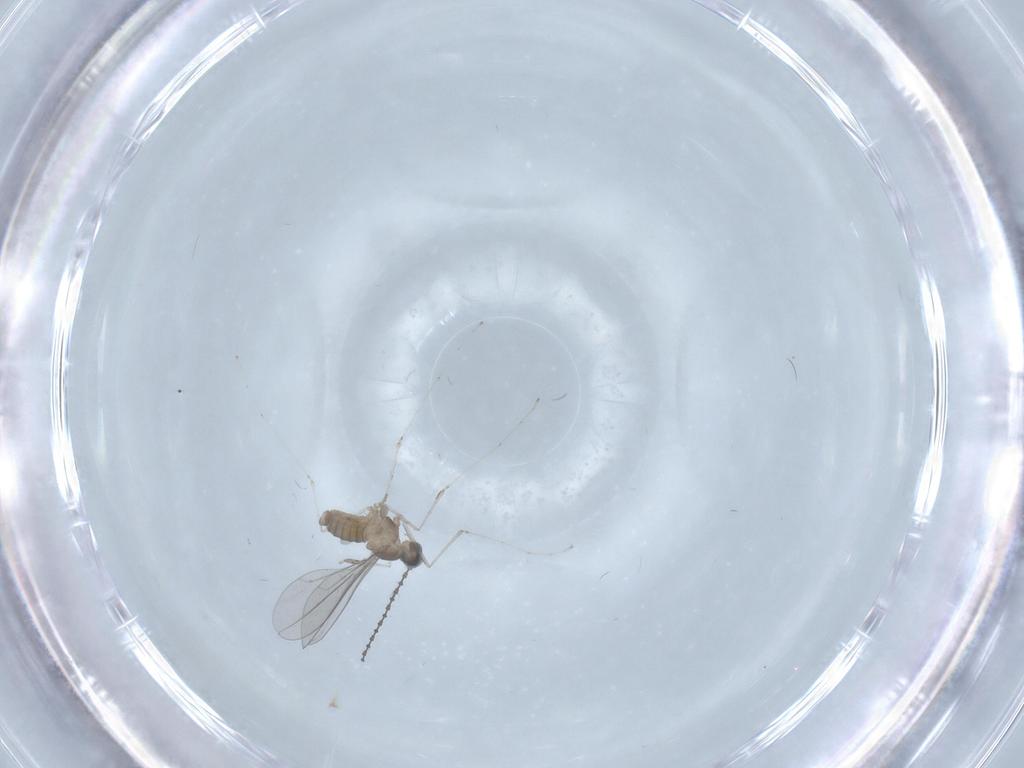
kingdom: Animalia
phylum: Arthropoda
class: Insecta
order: Diptera
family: Cecidomyiidae
